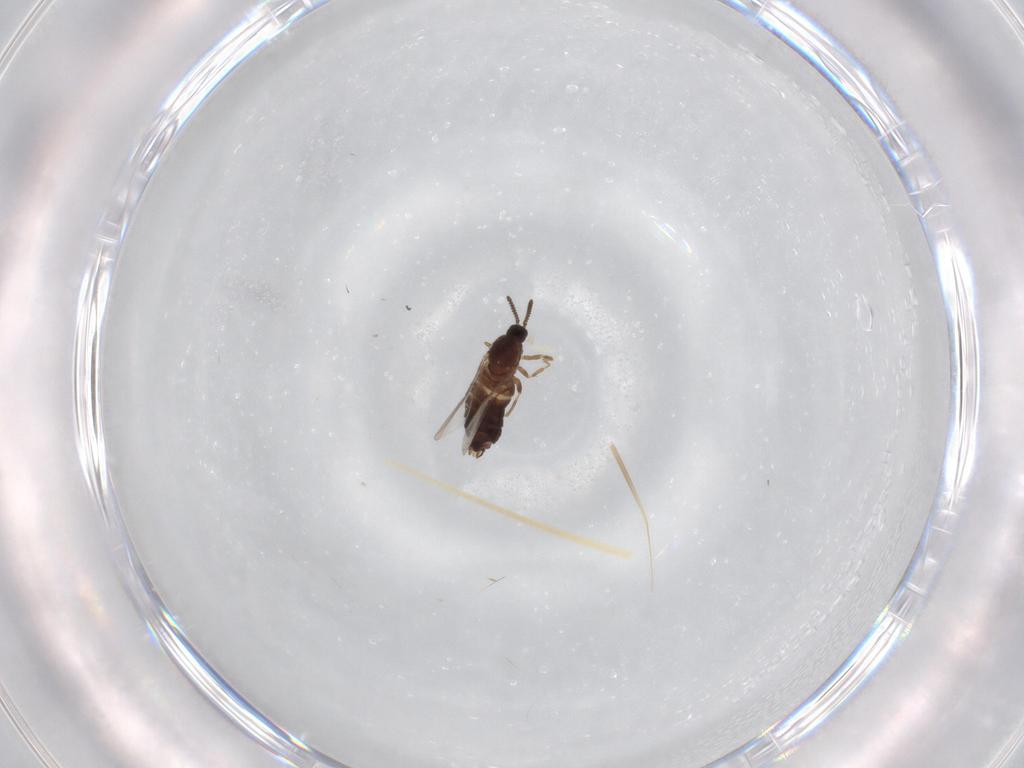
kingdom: Animalia
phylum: Arthropoda
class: Insecta
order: Diptera
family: Scatopsidae
